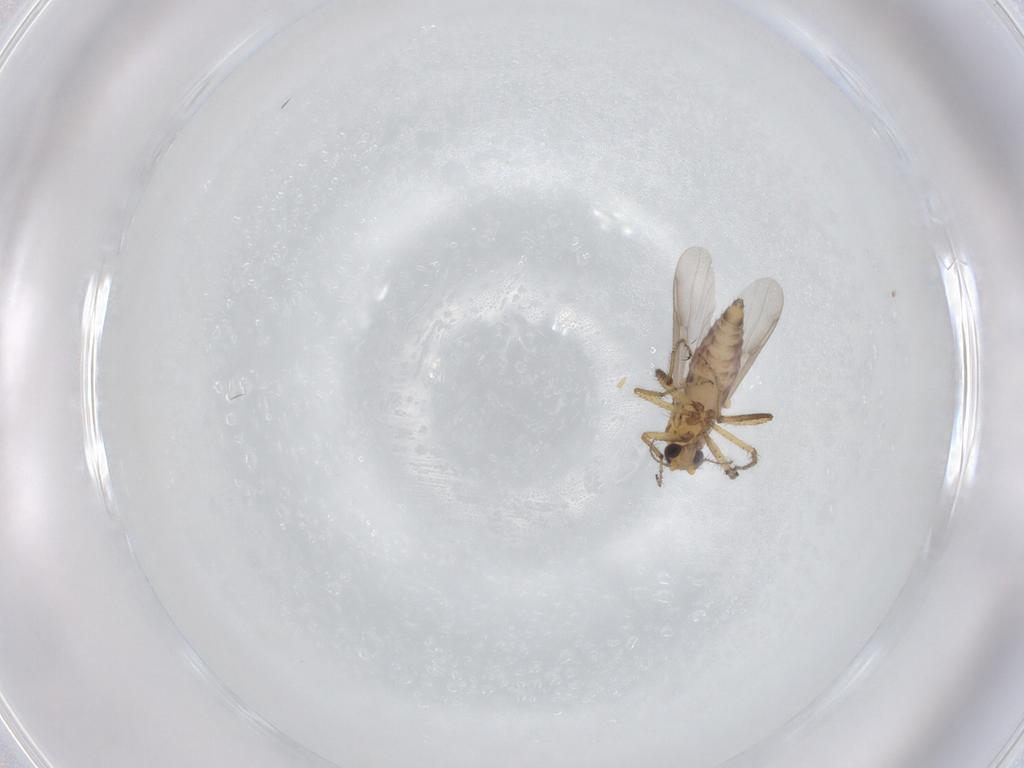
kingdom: Animalia
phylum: Arthropoda
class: Insecta
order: Diptera
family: Ceratopogonidae
